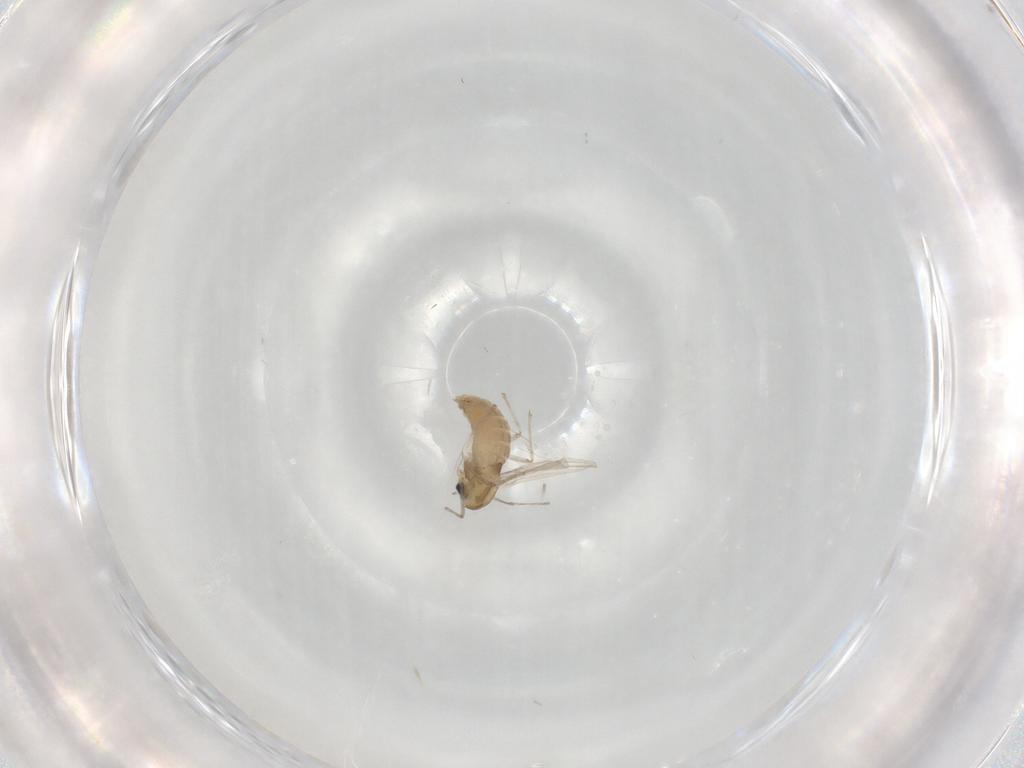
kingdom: Animalia
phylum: Arthropoda
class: Insecta
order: Diptera
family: Chironomidae
